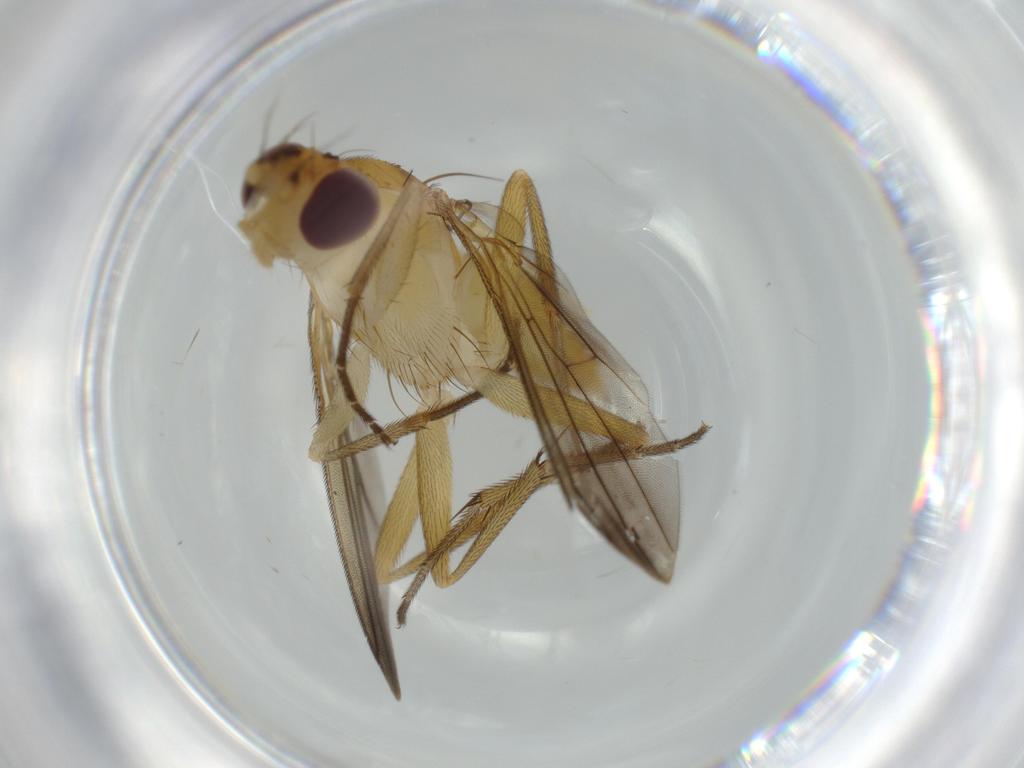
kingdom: Animalia
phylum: Arthropoda
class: Insecta
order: Diptera
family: Clusiidae
